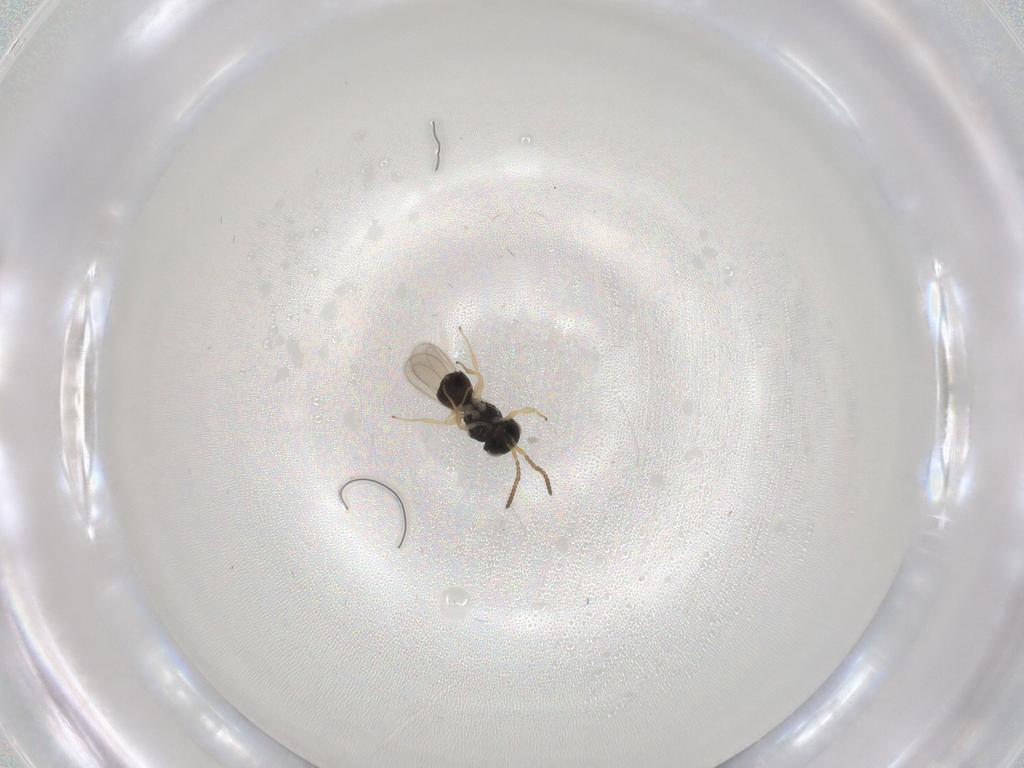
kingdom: Animalia
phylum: Arthropoda
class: Insecta
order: Hymenoptera
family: Scelionidae
